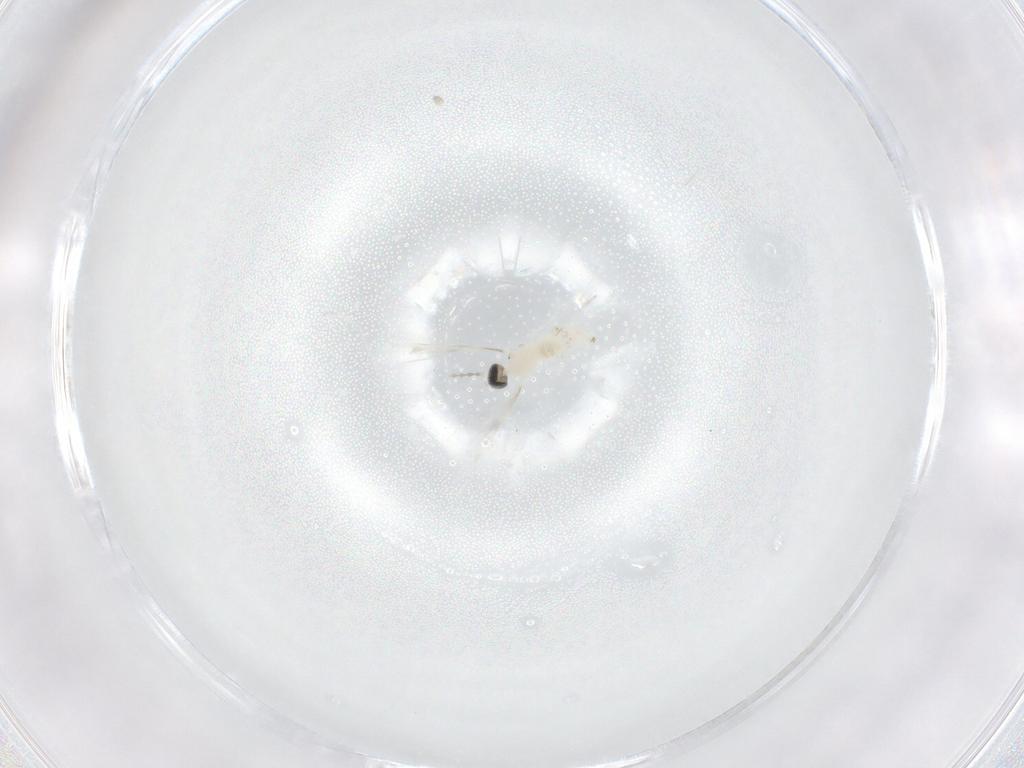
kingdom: Animalia
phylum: Arthropoda
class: Insecta
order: Diptera
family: Cecidomyiidae
